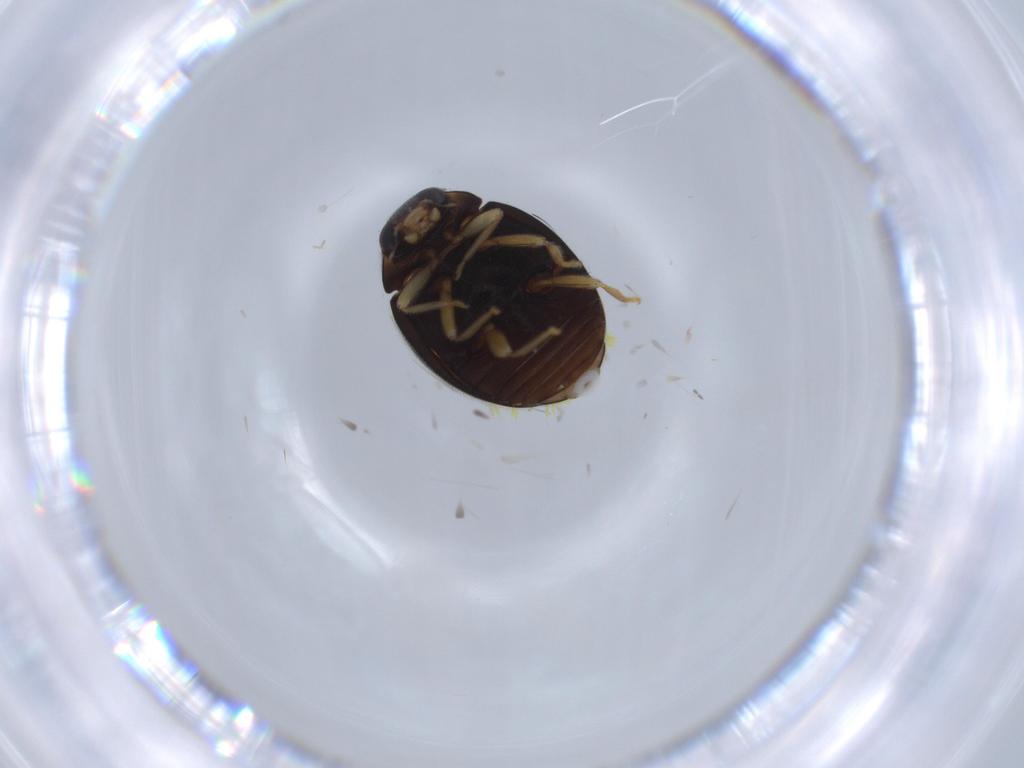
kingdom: Animalia
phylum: Arthropoda
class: Insecta
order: Coleoptera
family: Coccinellidae
